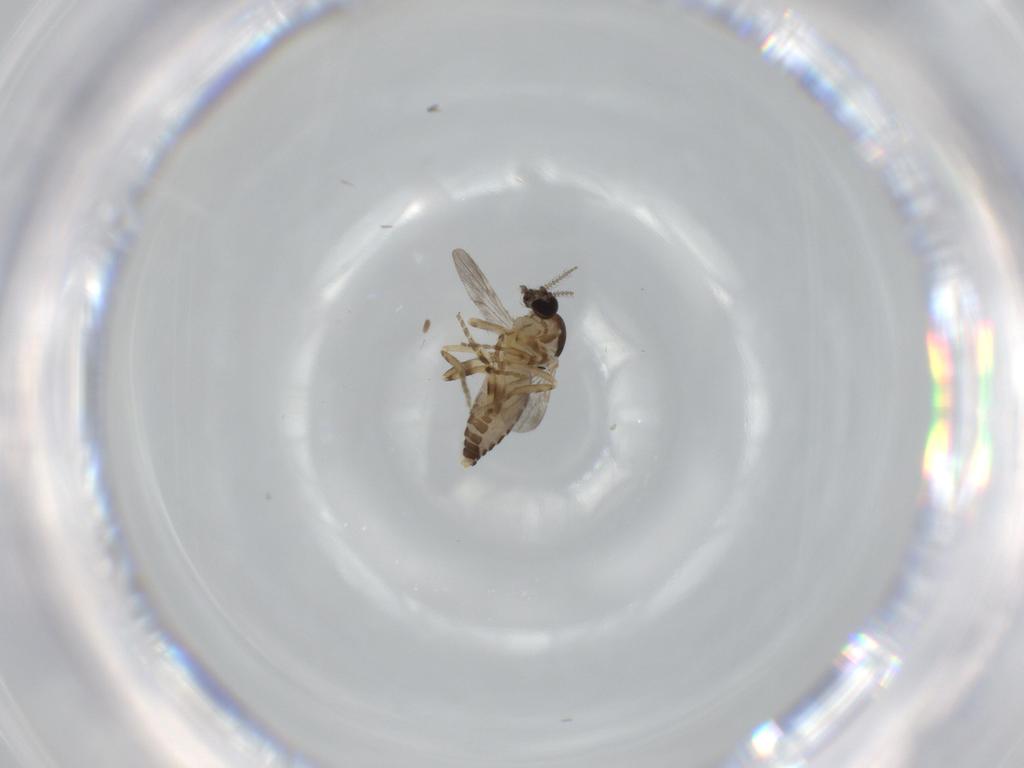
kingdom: Animalia
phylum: Arthropoda
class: Insecta
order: Diptera
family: Ceratopogonidae
